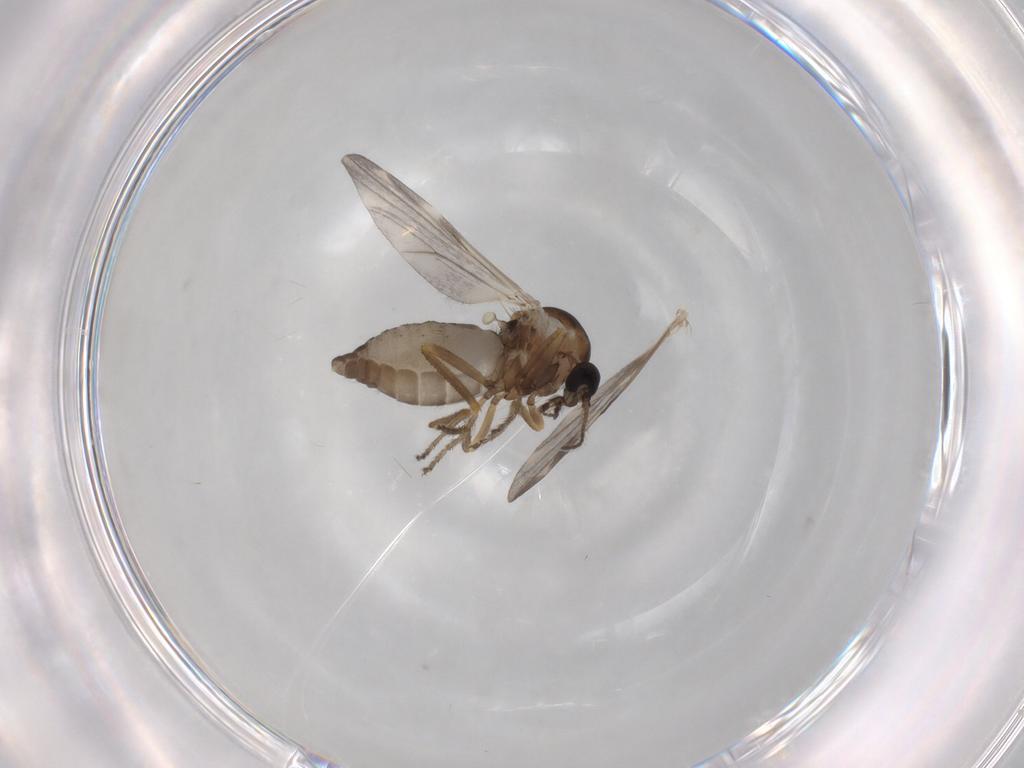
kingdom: Animalia
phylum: Arthropoda
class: Insecta
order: Diptera
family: Ceratopogonidae
